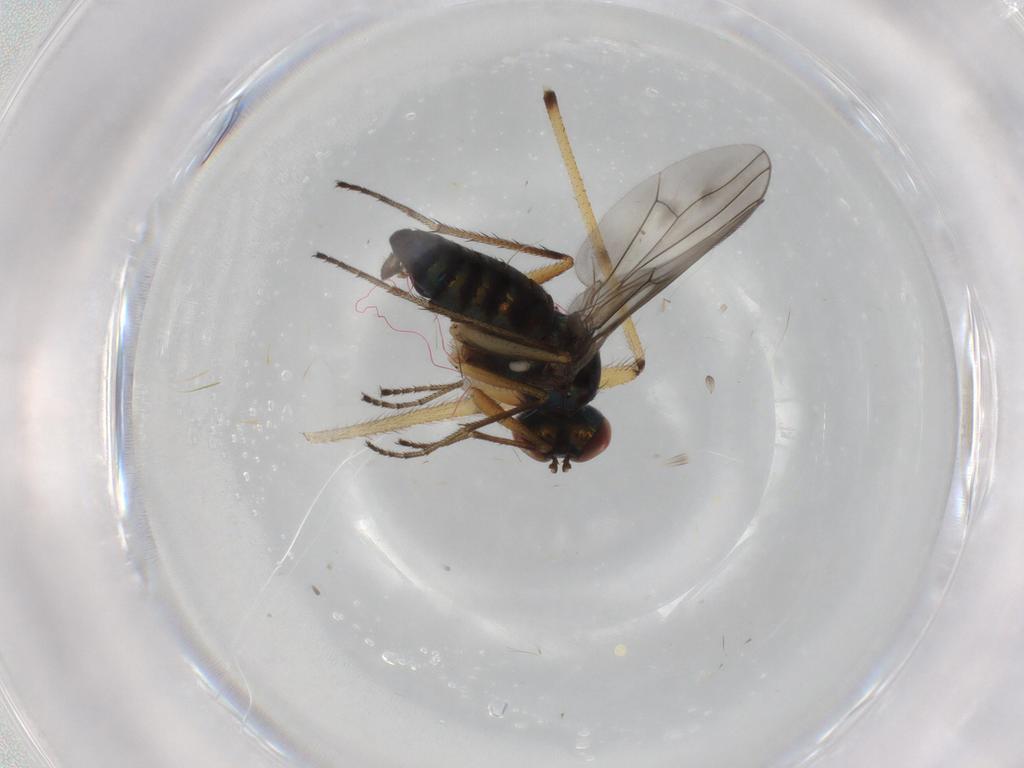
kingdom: Animalia
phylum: Arthropoda
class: Insecta
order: Diptera
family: Dolichopodidae
